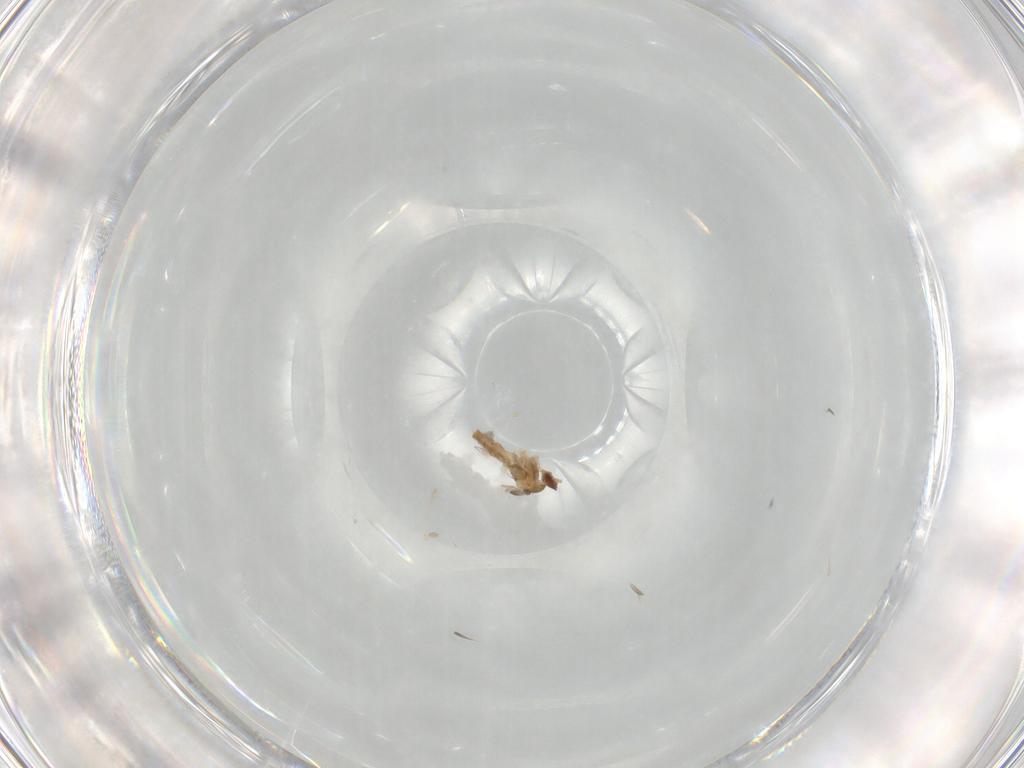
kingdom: Animalia
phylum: Arthropoda
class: Insecta
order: Diptera
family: Cecidomyiidae
